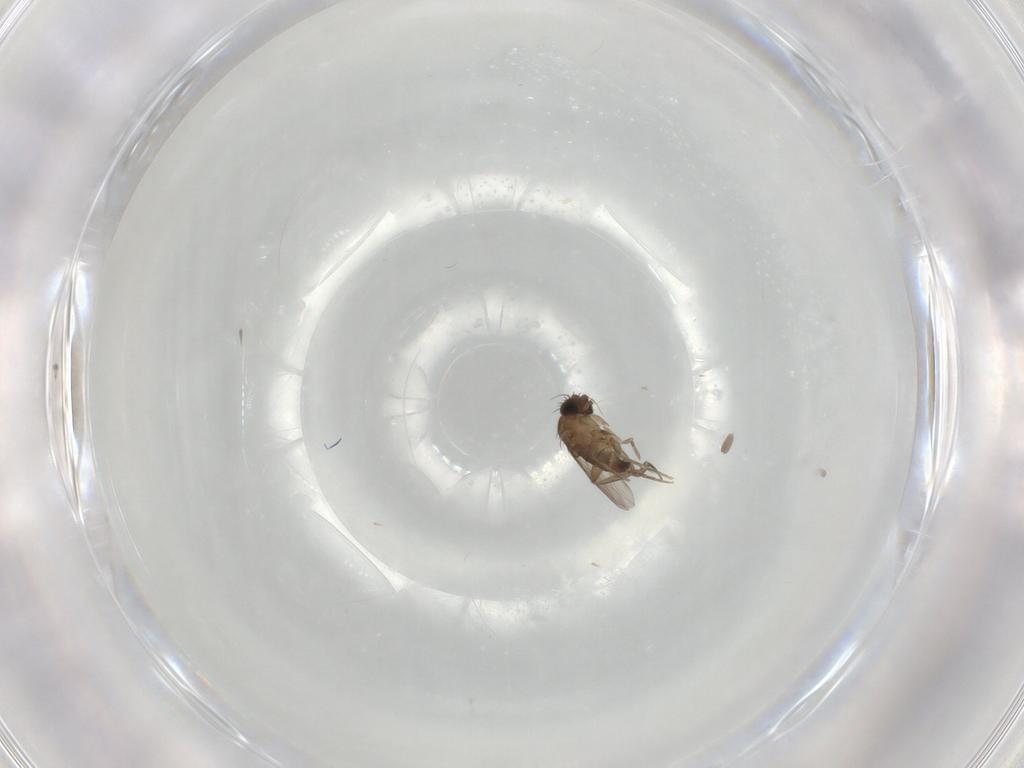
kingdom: Animalia
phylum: Arthropoda
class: Insecta
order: Diptera
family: Phoridae
